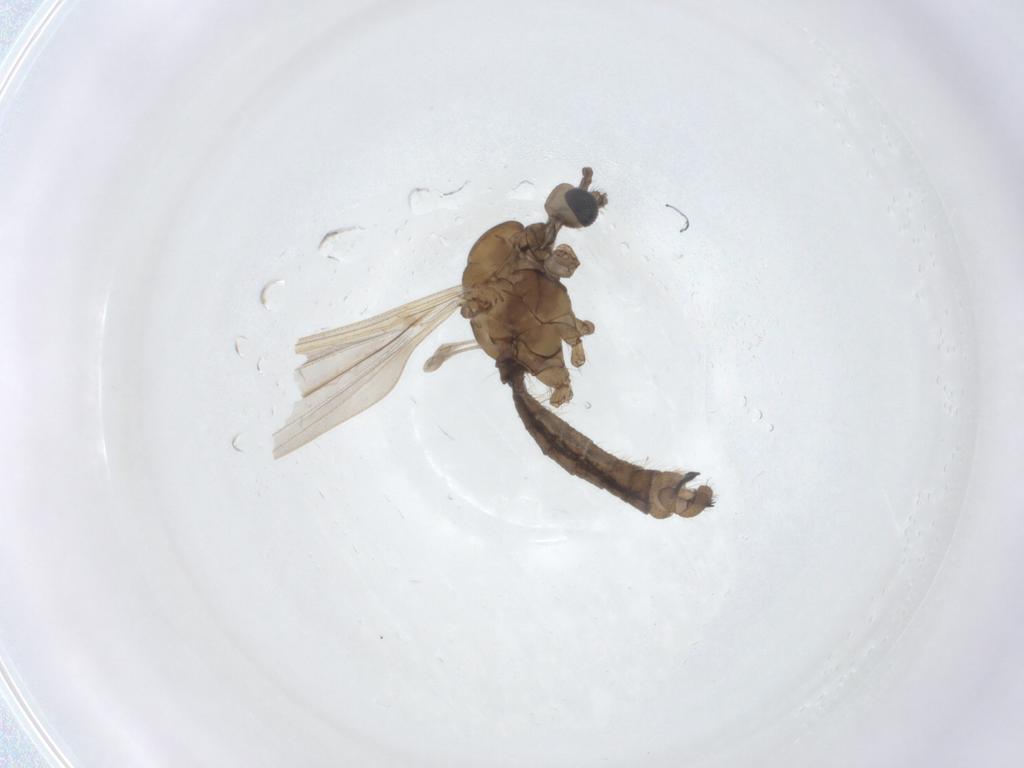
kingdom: Animalia
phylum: Arthropoda
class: Insecta
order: Diptera
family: Limoniidae
